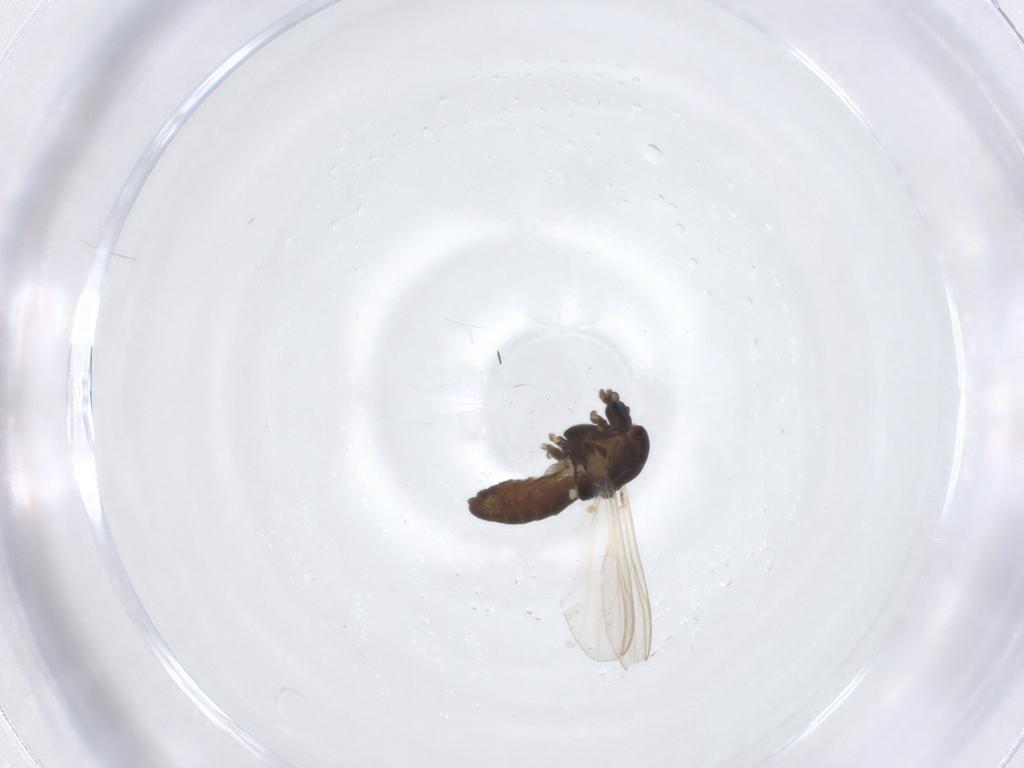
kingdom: Animalia
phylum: Arthropoda
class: Insecta
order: Diptera
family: Chironomidae
